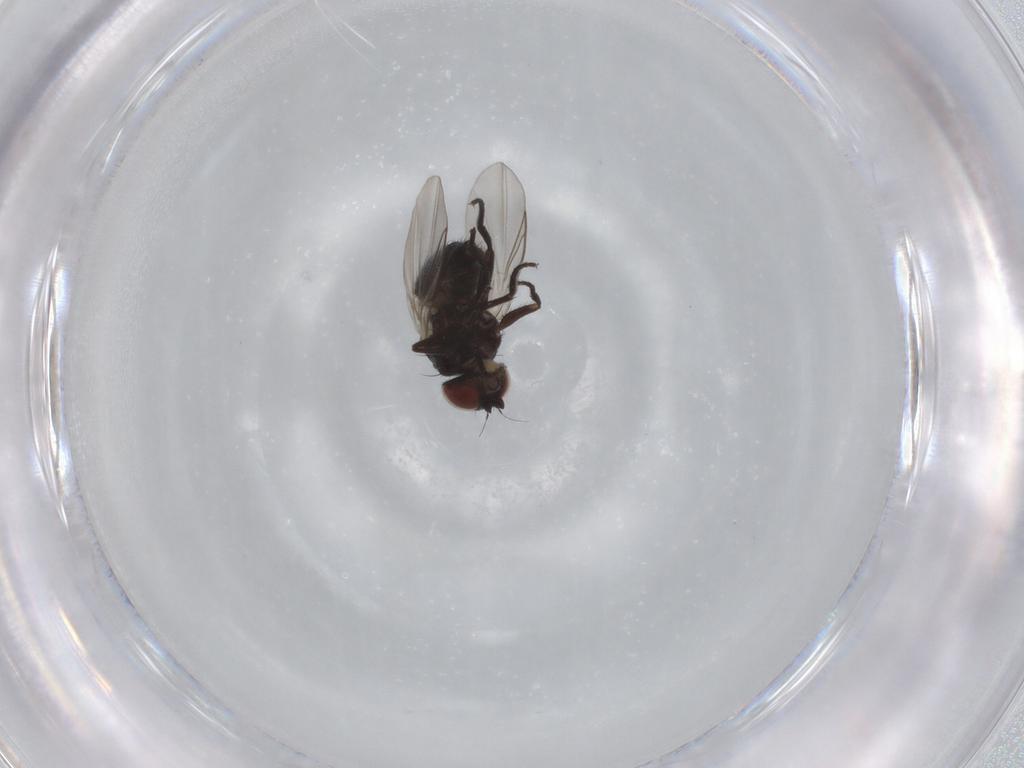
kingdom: Animalia
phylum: Arthropoda
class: Insecta
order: Diptera
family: Agromyzidae
